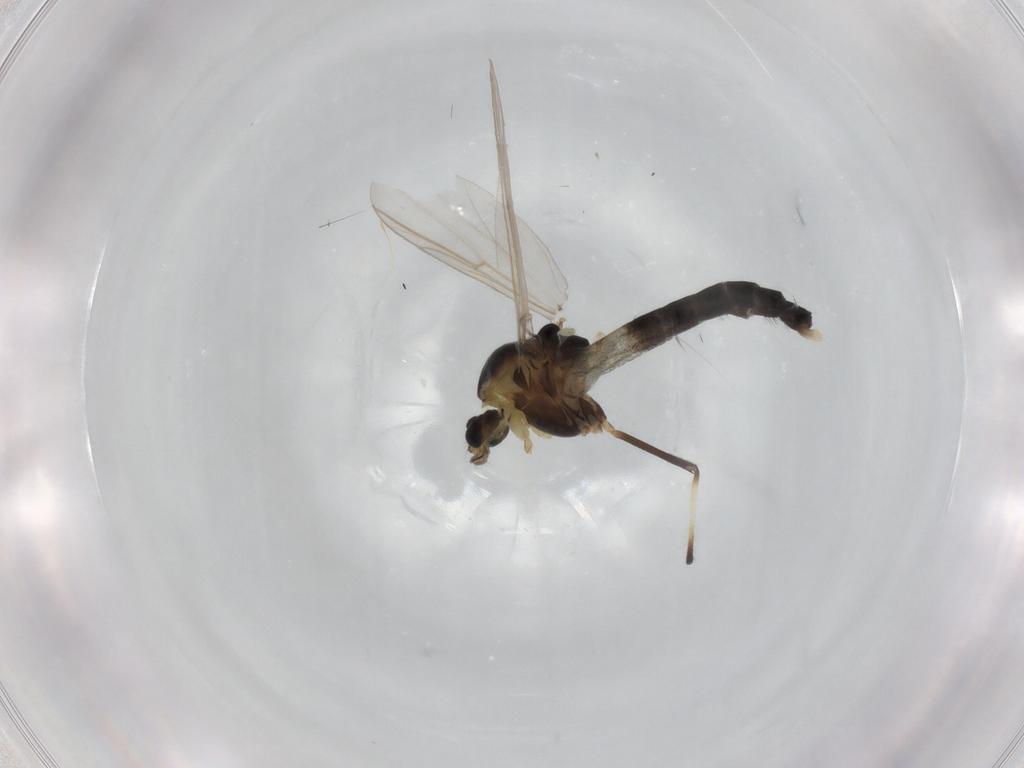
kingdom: Animalia
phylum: Arthropoda
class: Insecta
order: Diptera
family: Chironomidae
